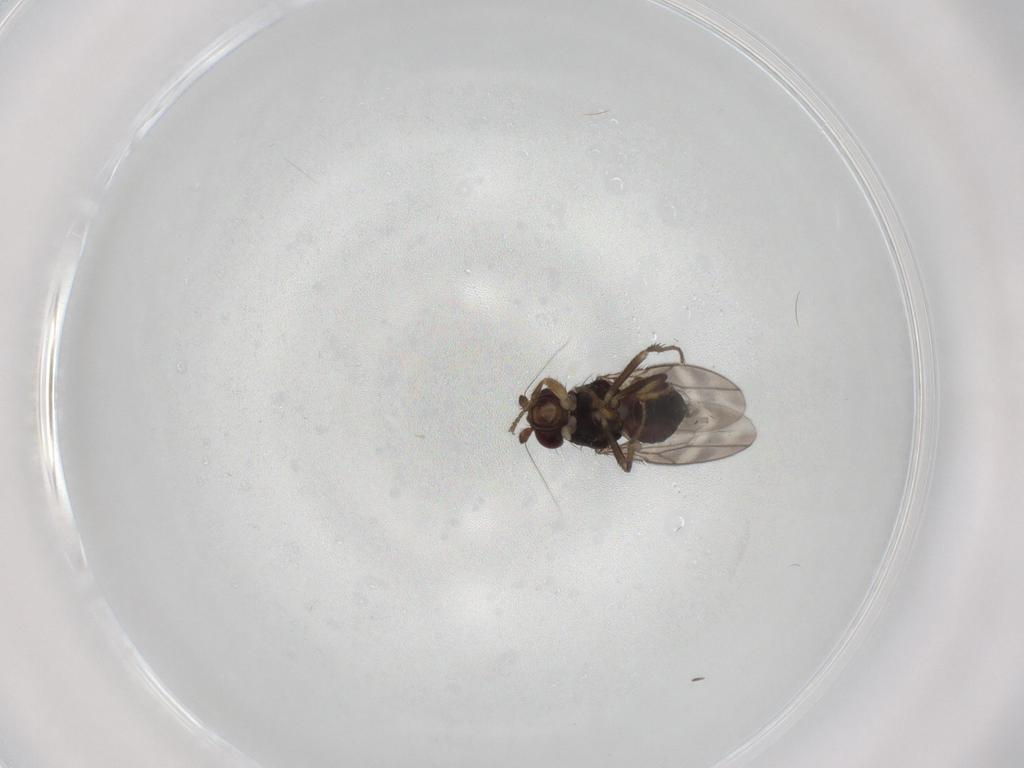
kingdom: Animalia
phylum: Arthropoda
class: Insecta
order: Diptera
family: Sphaeroceridae
